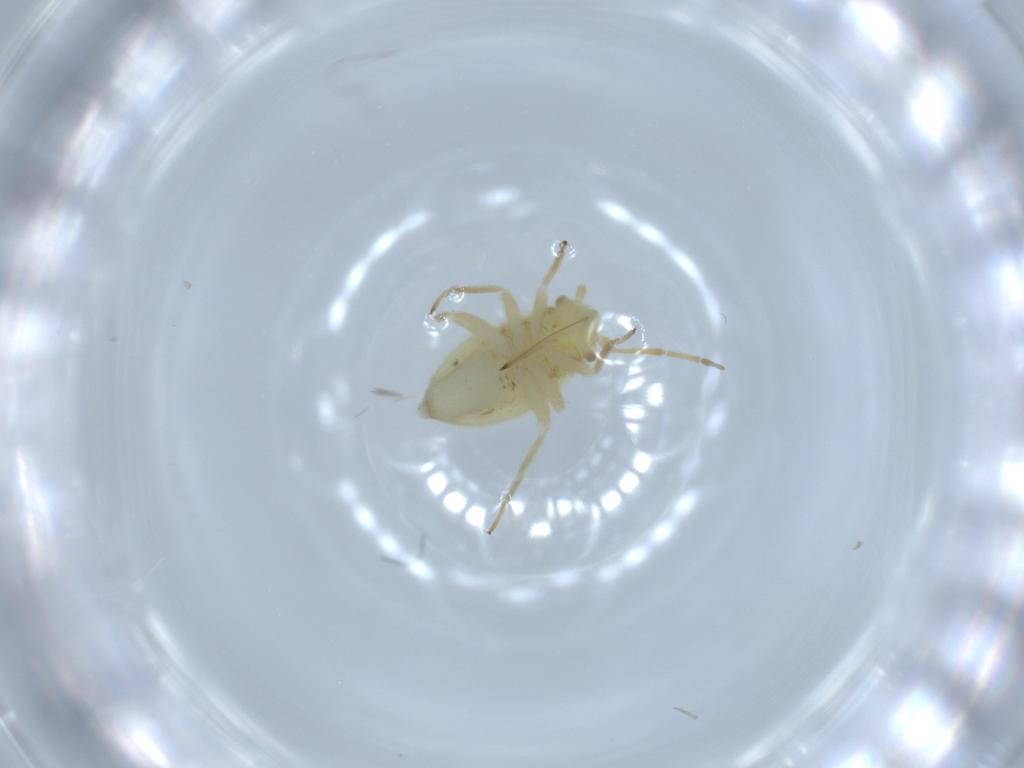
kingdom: Animalia
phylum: Arthropoda
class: Insecta
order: Hemiptera
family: Miridae
